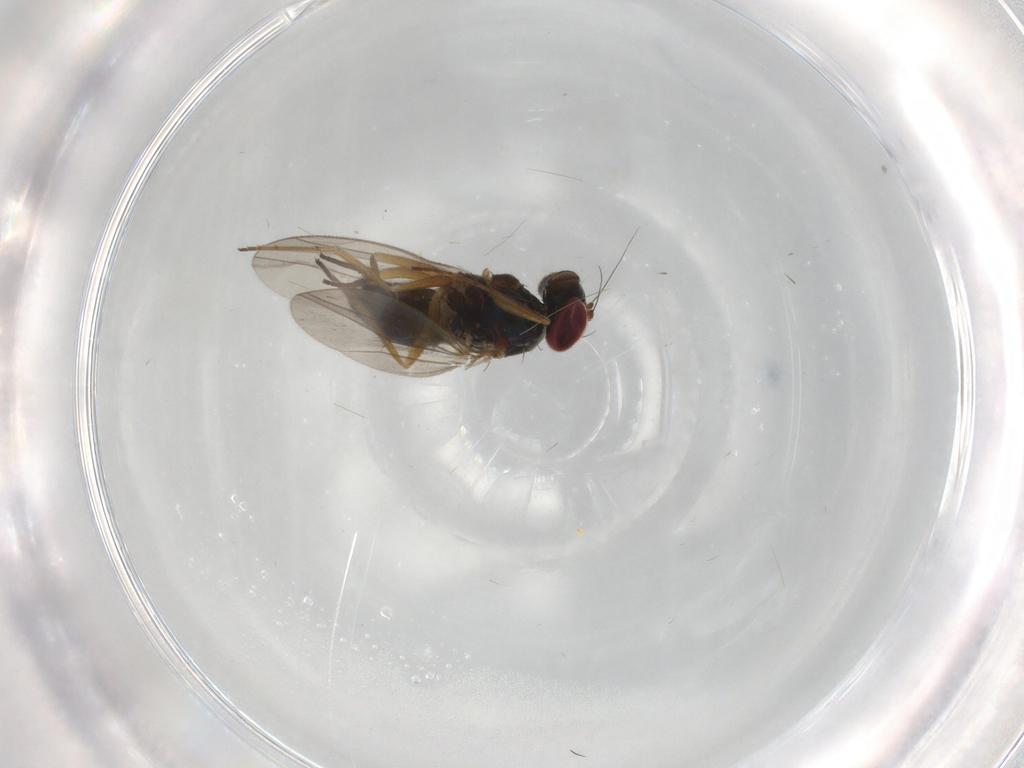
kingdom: Animalia
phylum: Arthropoda
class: Insecta
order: Diptera
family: Dolichopodidae
